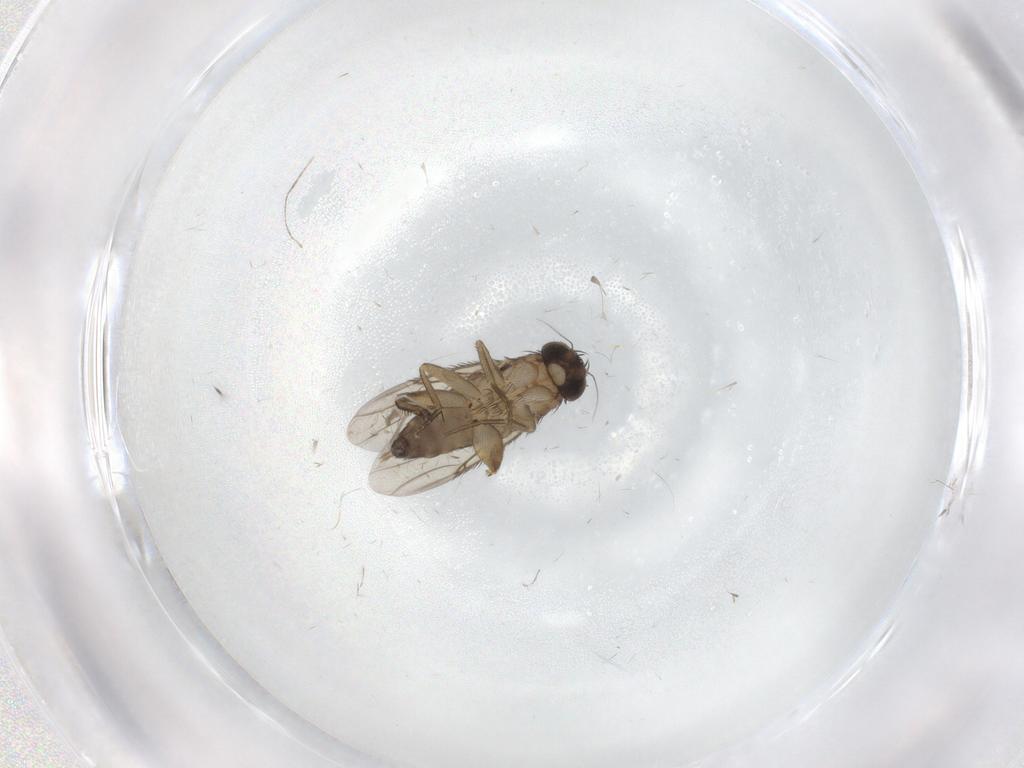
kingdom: Animalia
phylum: Arthropoda
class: Insecta
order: Diptera
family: Phoridae
